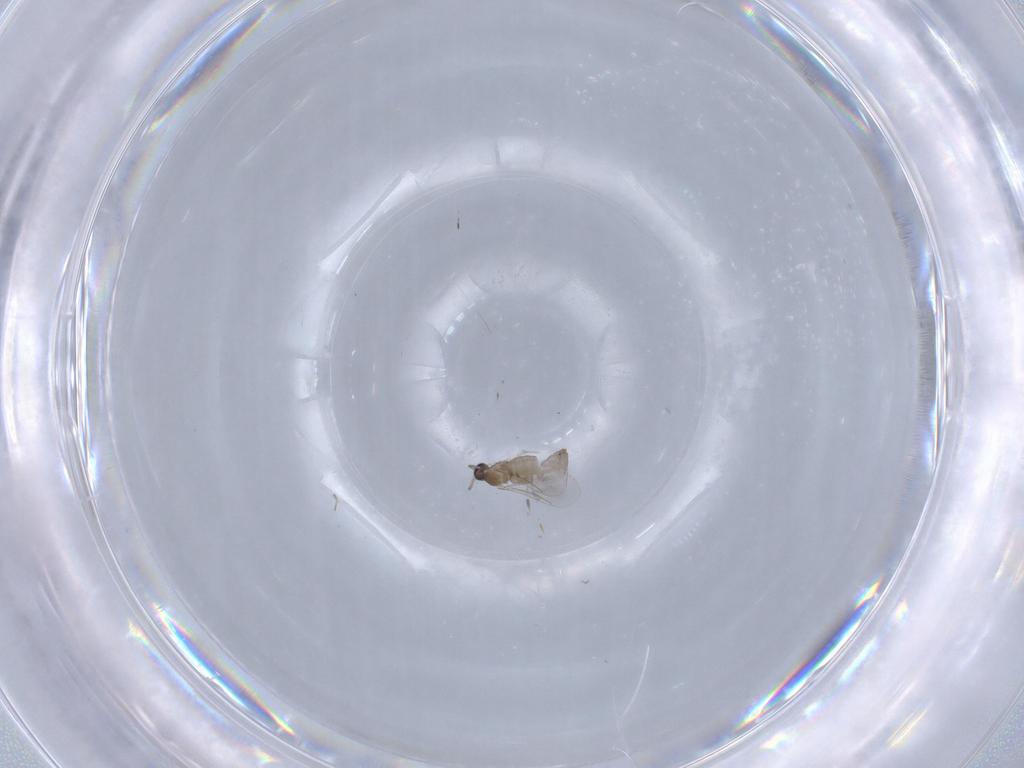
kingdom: Animalia
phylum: Arthropoda
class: Insecta
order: Diptera
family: Cecidomyiidae
